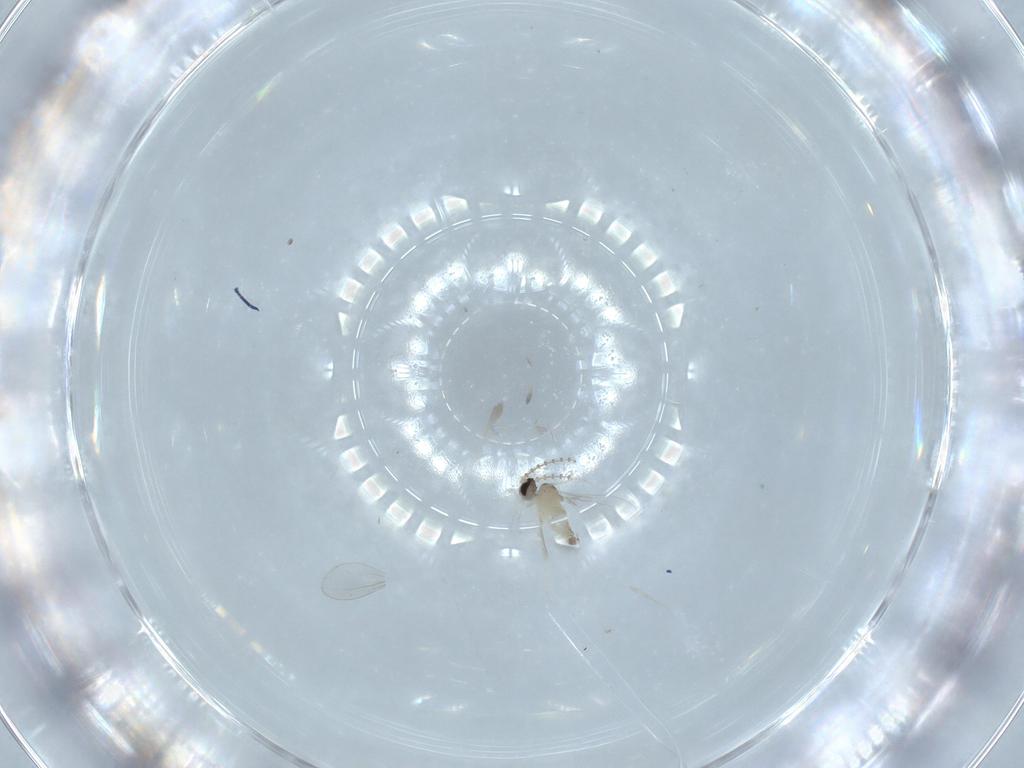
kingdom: Animalia
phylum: Arthropoda
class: Insecta
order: Diptera
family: Cecidomyiidae
